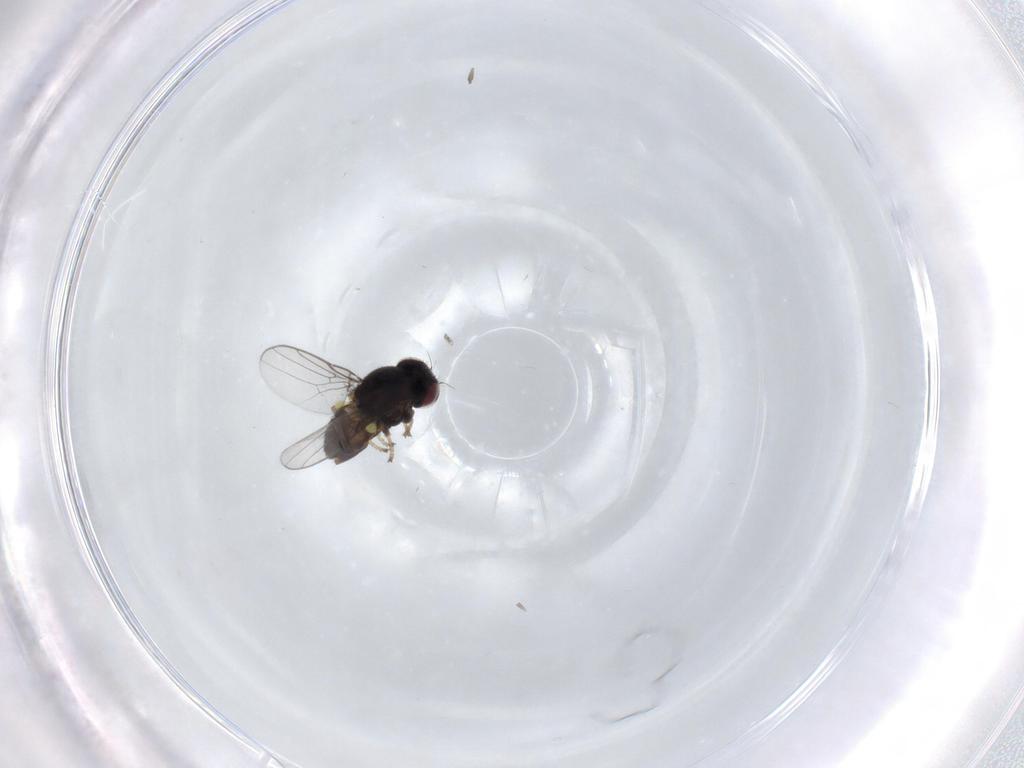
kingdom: Animalia
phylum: Arthropoda
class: Insecta
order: Diptera
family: Chloropidae
